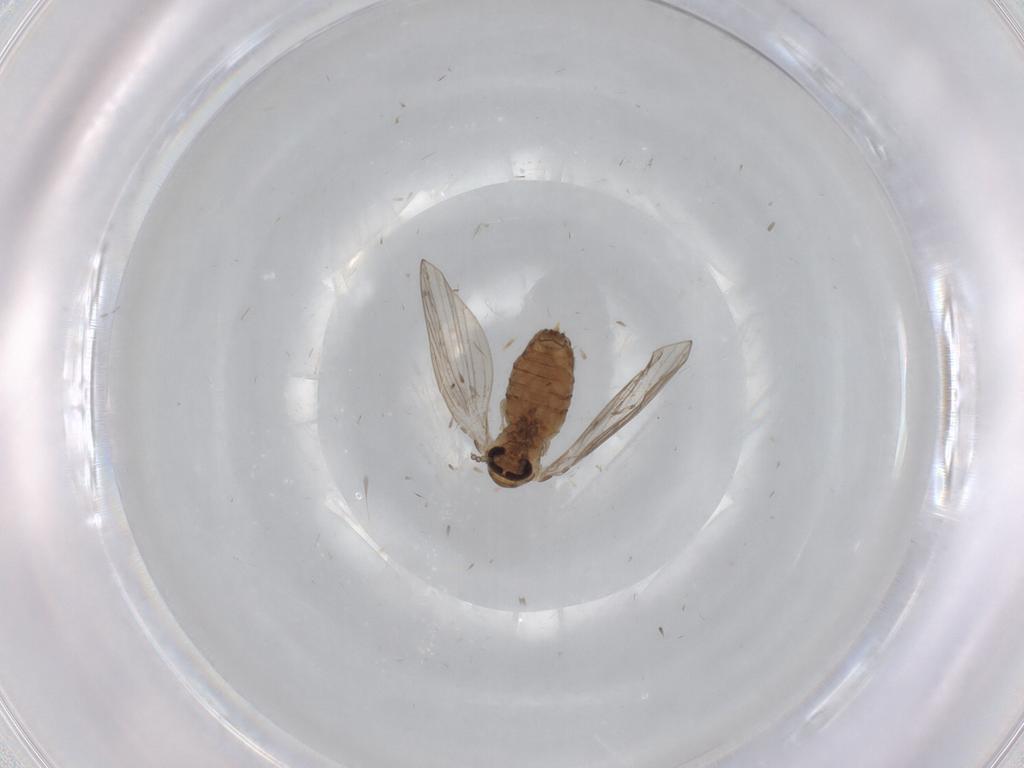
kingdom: Animalia
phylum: Arthropoda
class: Insecta
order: Diptera
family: Psychodidae
